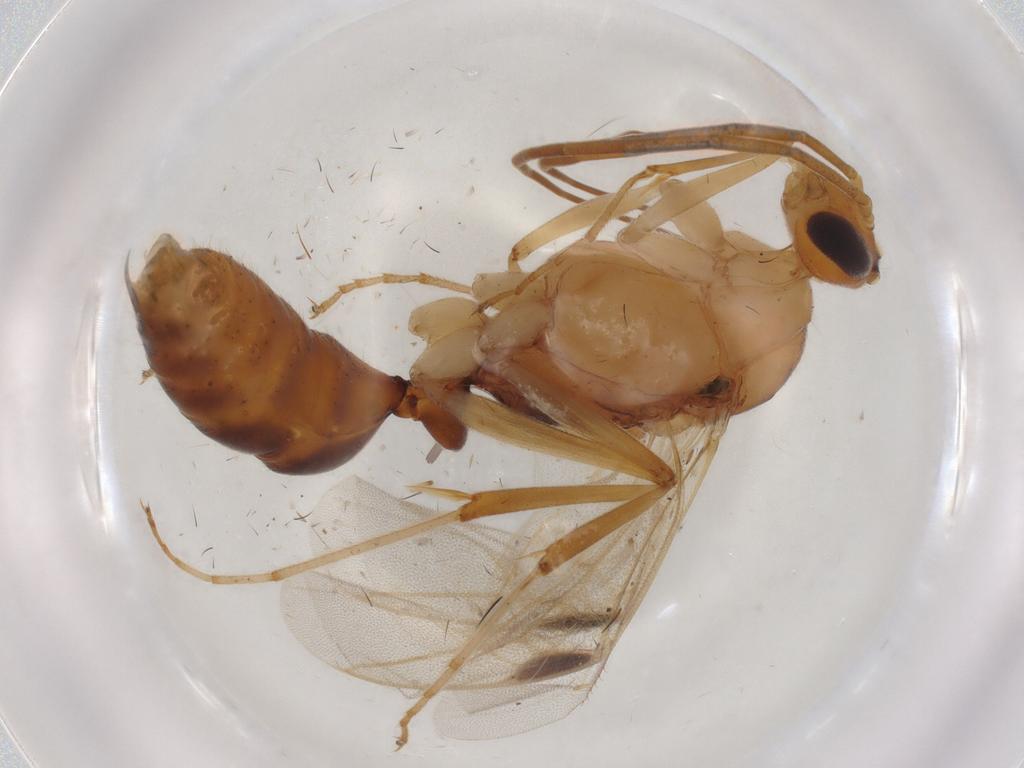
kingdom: Animalia
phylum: Arthropoda
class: Insecta
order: Hymenoptera
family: Formicidae
